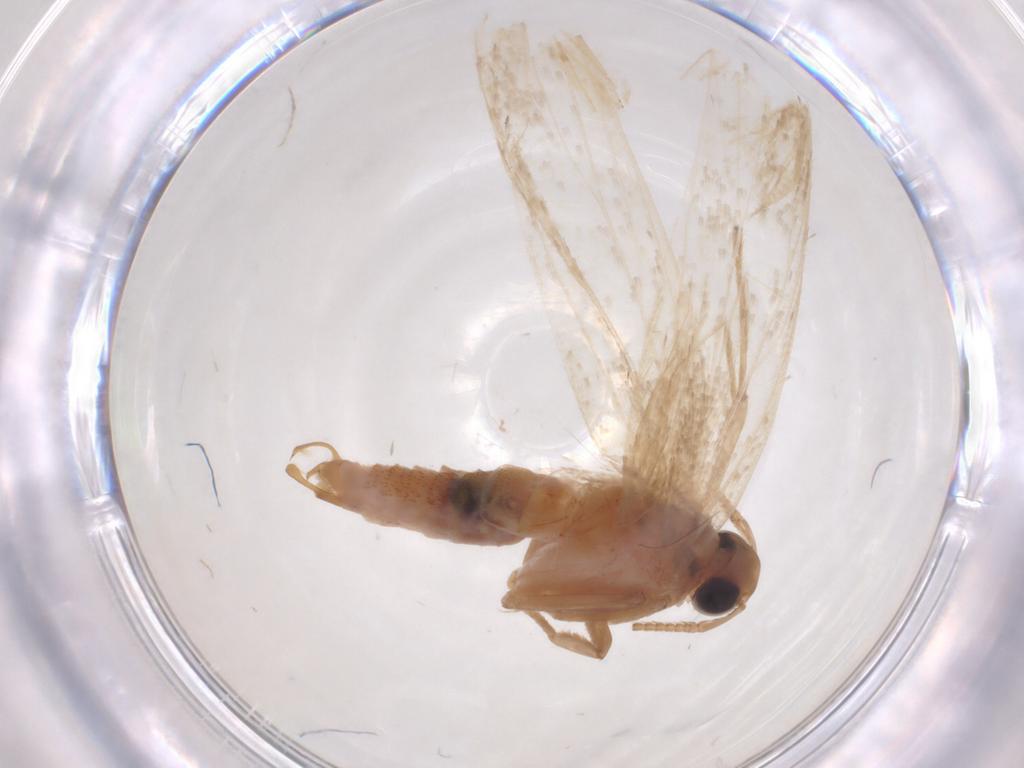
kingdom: Animalia
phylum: Arthropoda
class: Insecta
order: Lepidoptera
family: Lecithoceridae
